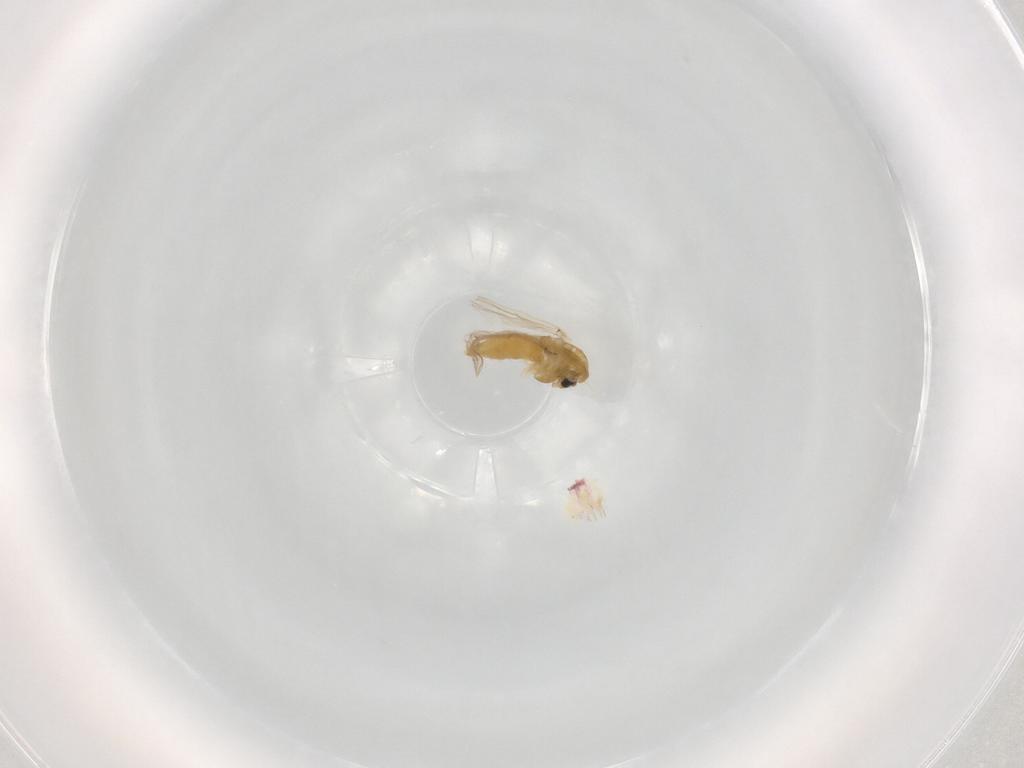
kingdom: Animalia
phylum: Arthropoda
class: Insecta
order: Diptera
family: Chironomidae
